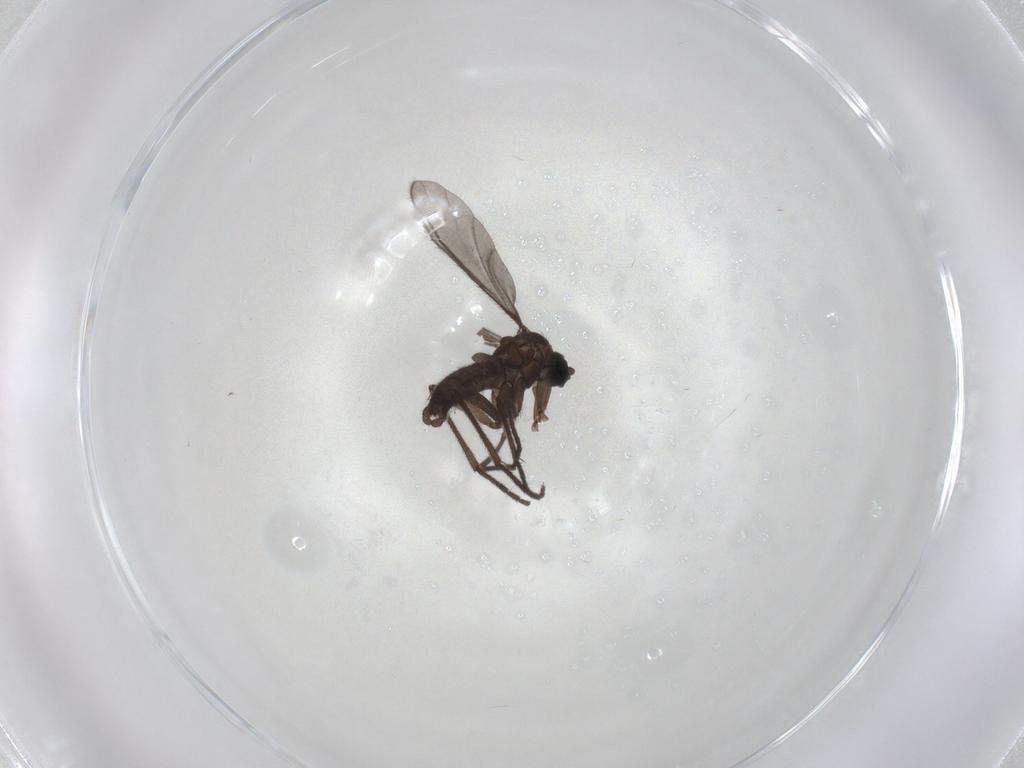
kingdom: Animalia
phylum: Arthropoda
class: Insecta
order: Diptera
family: Sciaridae
